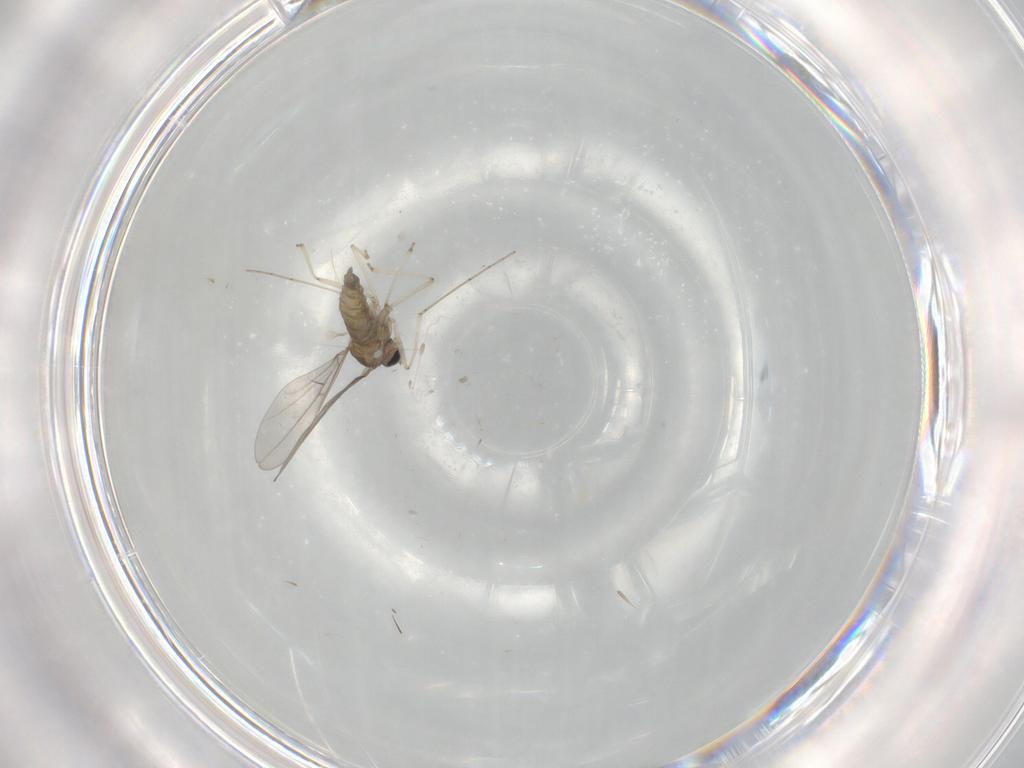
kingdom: Animalia
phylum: Arthropoda
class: Insecta
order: Diptera
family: Cecidomyiidae
